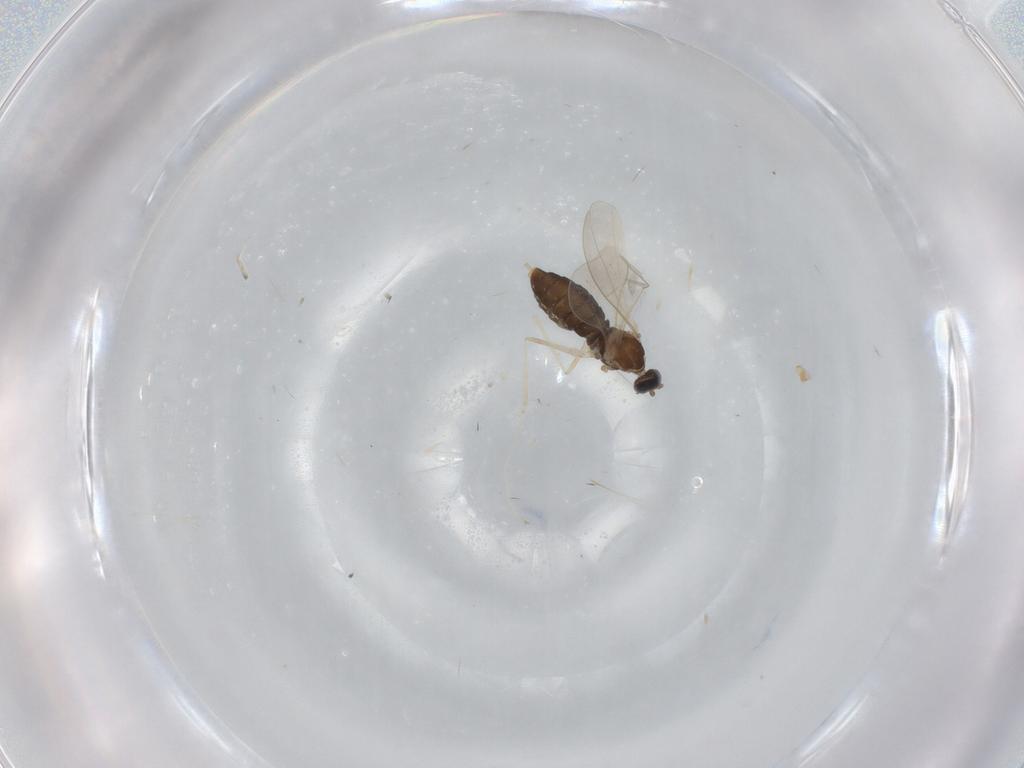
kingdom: Animalia
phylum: Arthropoda
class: Insecta
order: Diptera
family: Cecidomyiidae
